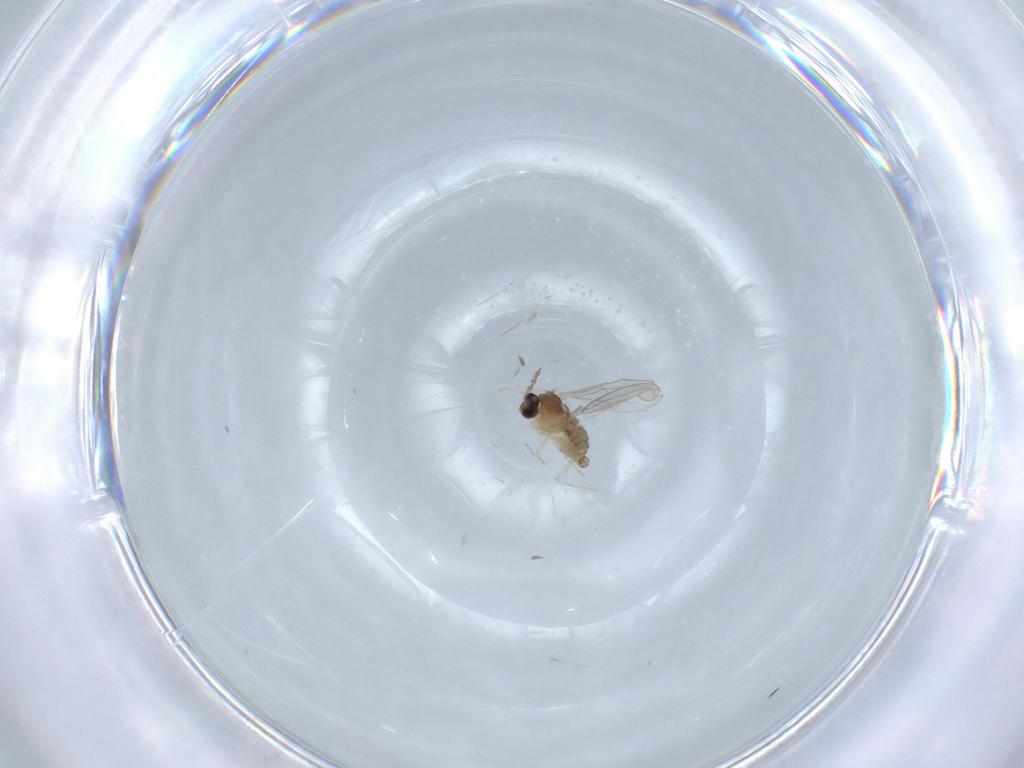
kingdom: Animalia
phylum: Arthropoda
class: Insecta
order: Diptera
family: Cecidomyiidae
